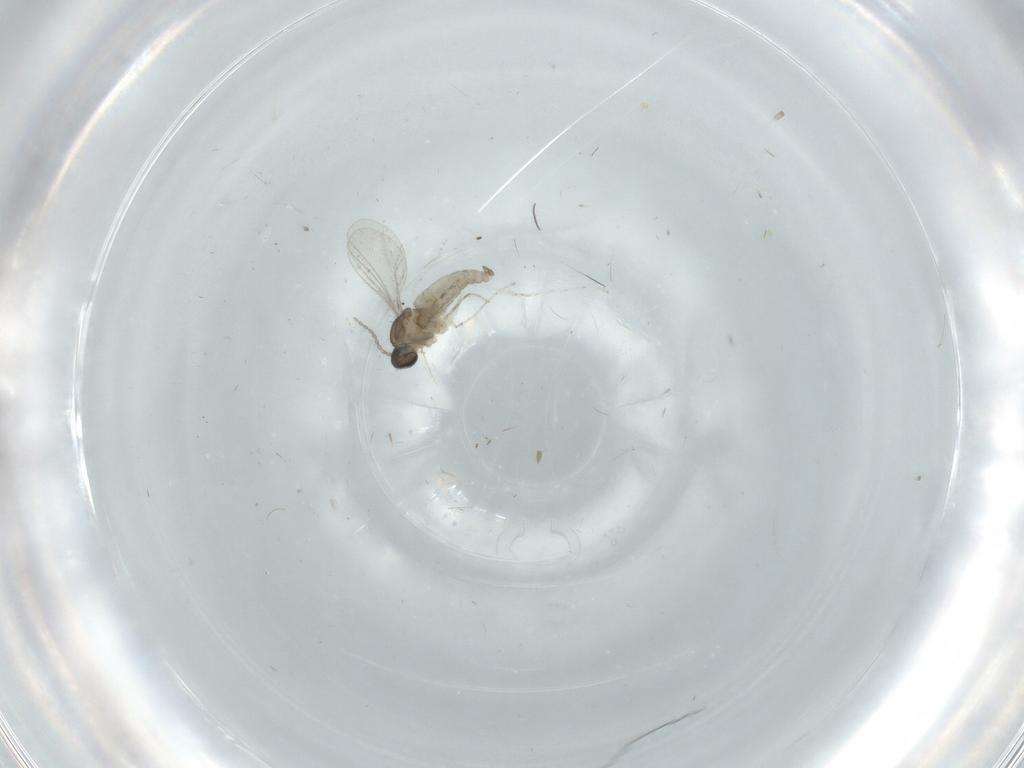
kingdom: Animalia
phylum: Arthropoda
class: Insecta
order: Diptera
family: Cecidomyiidae
